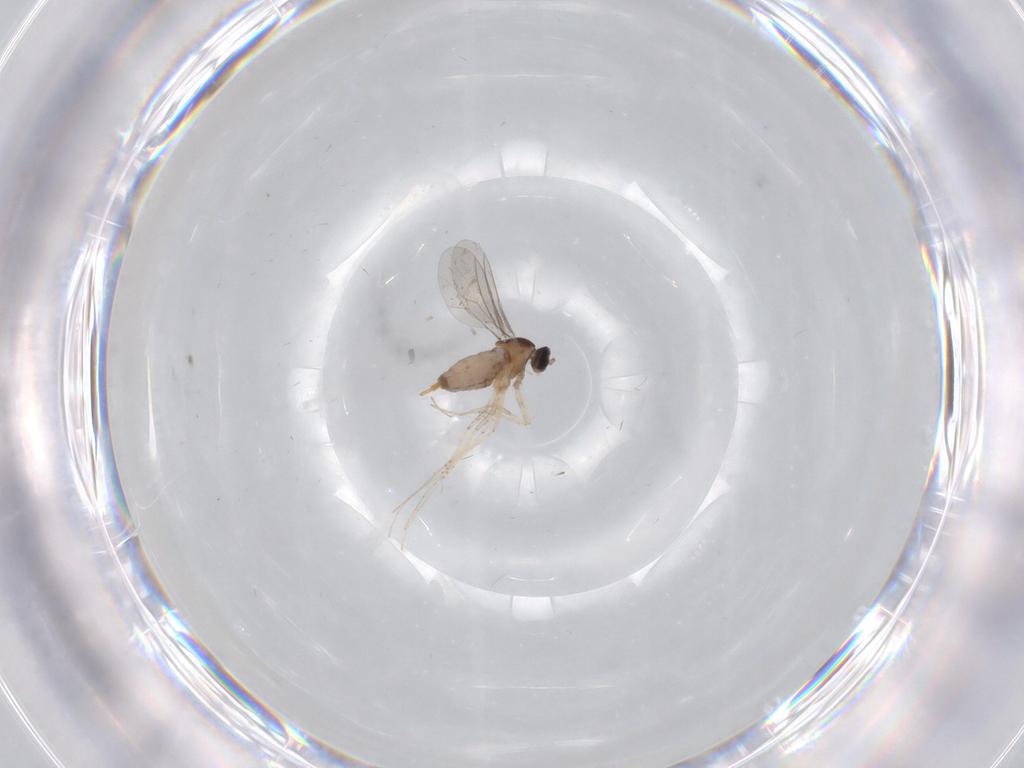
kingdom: Animalia
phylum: Arthropoda
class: Insecta
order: Diptera
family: Cecidomyiidae
